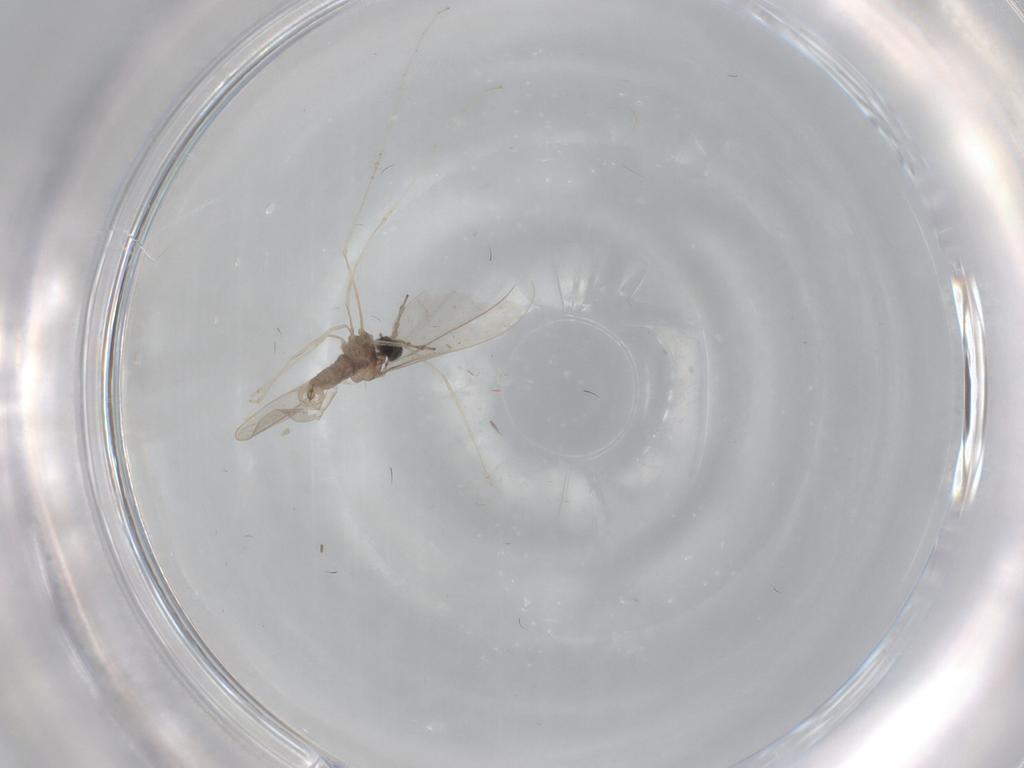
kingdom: Animalia
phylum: Arthropoda
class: Insecta
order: Diptera
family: Cecidomyiidae
